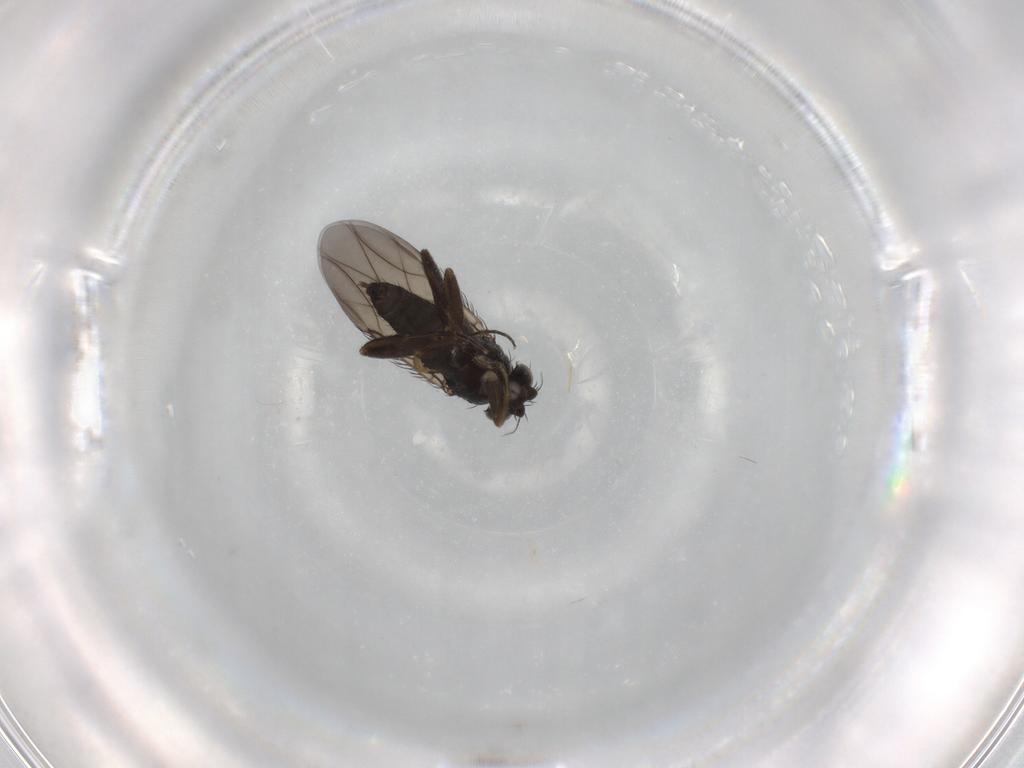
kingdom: Animalia
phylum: Arthropoda
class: Insecta
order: Diptera
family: Phoridae
